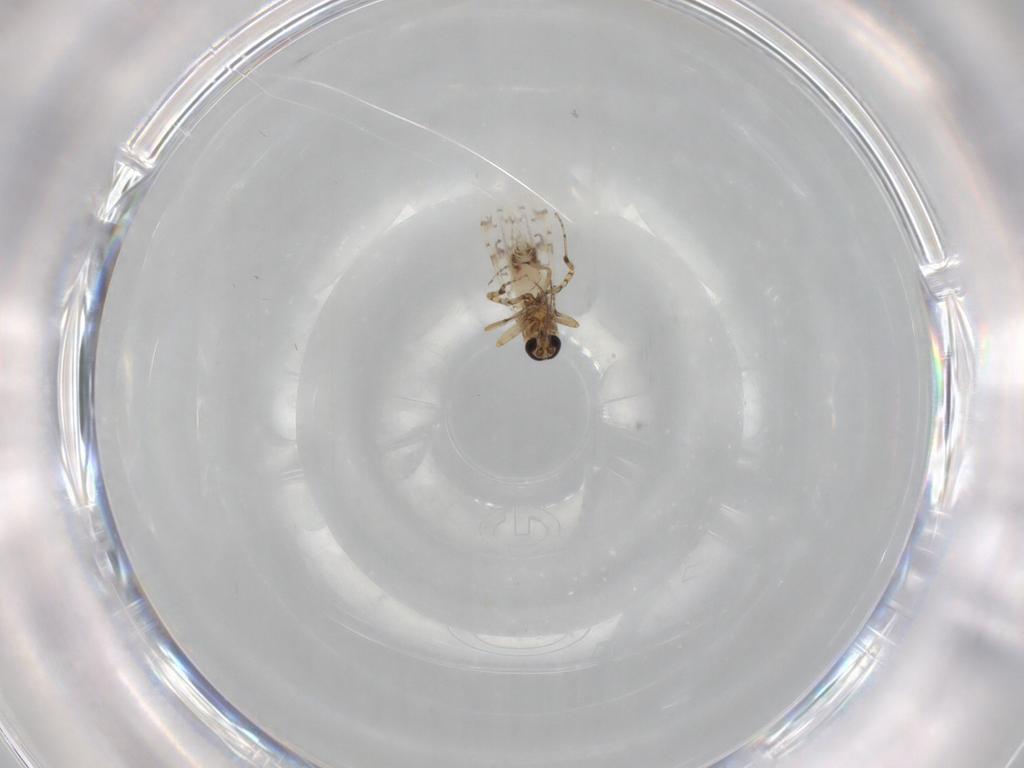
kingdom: Animalia
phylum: Arthropoda
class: Insecta
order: Diptera
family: Ceratopogonidae
